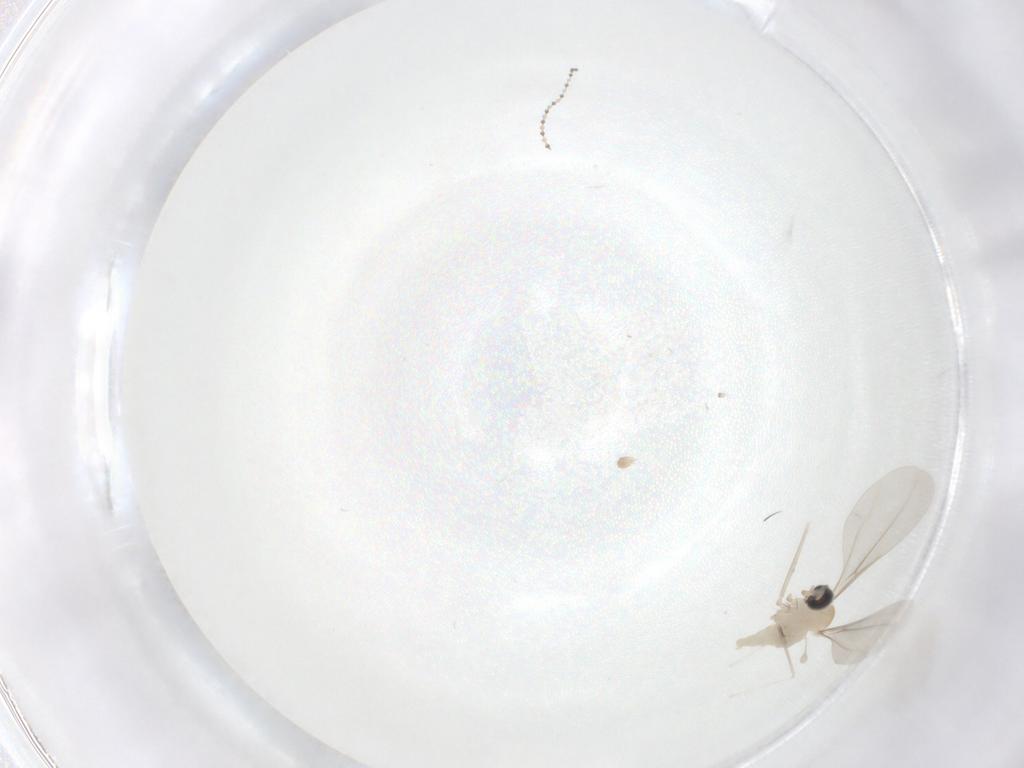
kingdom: Animalia
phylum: Arthropoda
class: Insecta
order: Diptera
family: Cecidomyiidae
